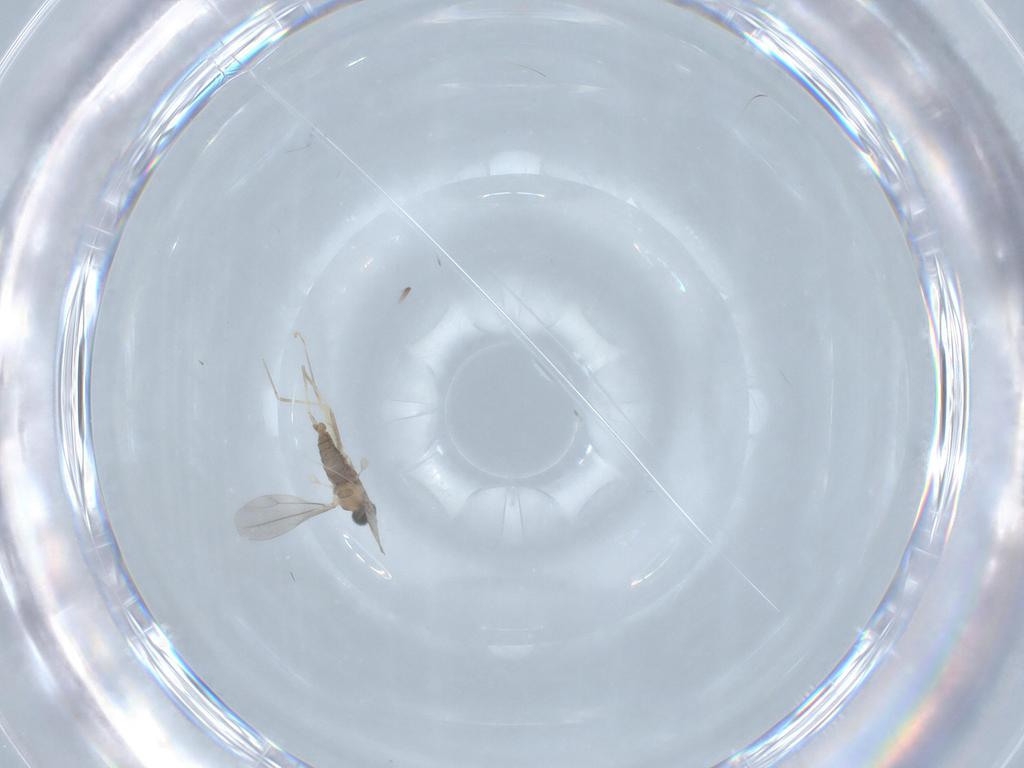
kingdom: Animalia
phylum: Arthropoda
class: Insecta
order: Diptera
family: Cecidomyiidae
